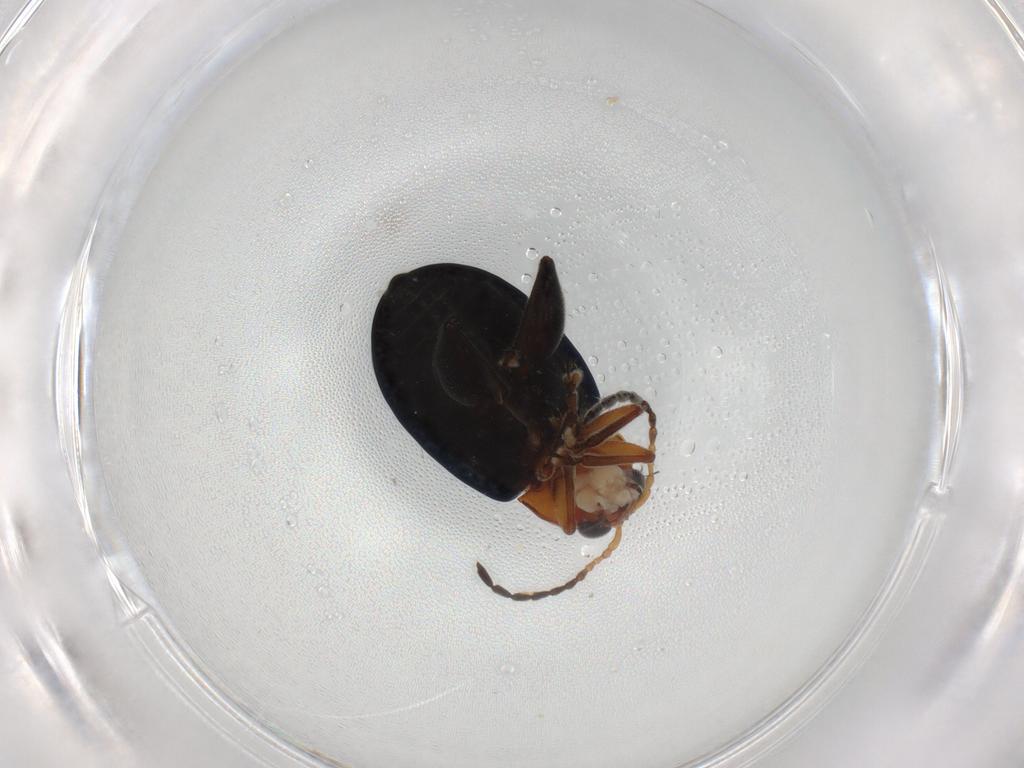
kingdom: Animalia
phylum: Arthropoda
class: Insecta
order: Coleoptera
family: Chrysomelidae
